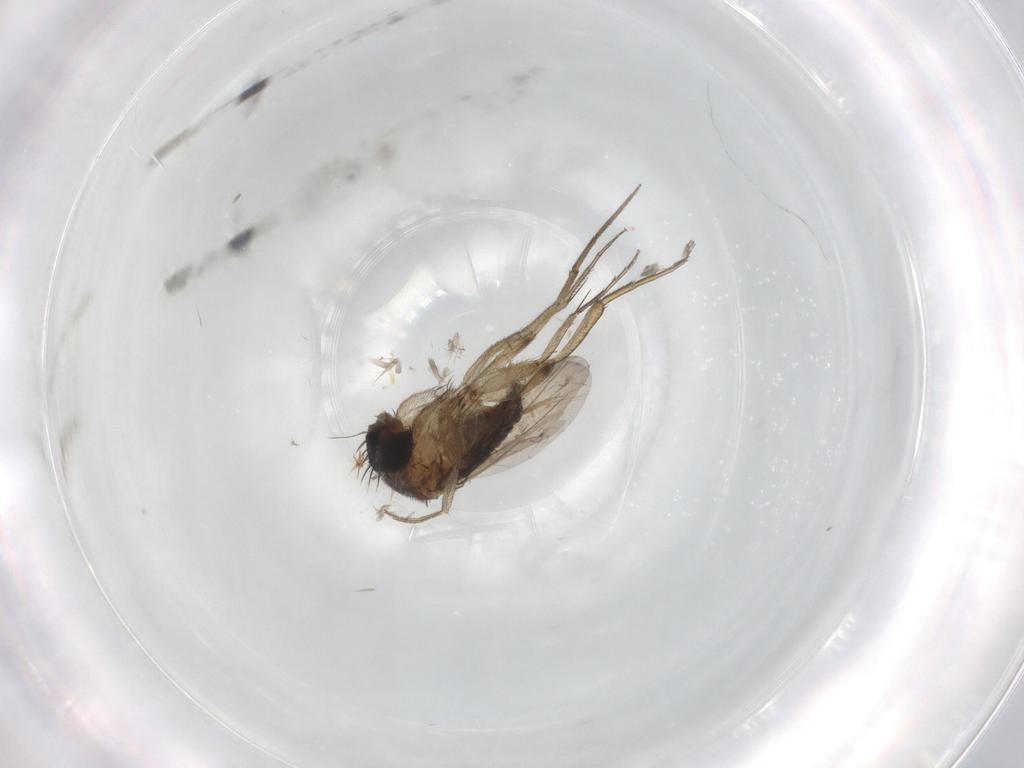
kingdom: Animalia
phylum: Arthropoda
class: Insecta
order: Diptera
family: Phoridae
